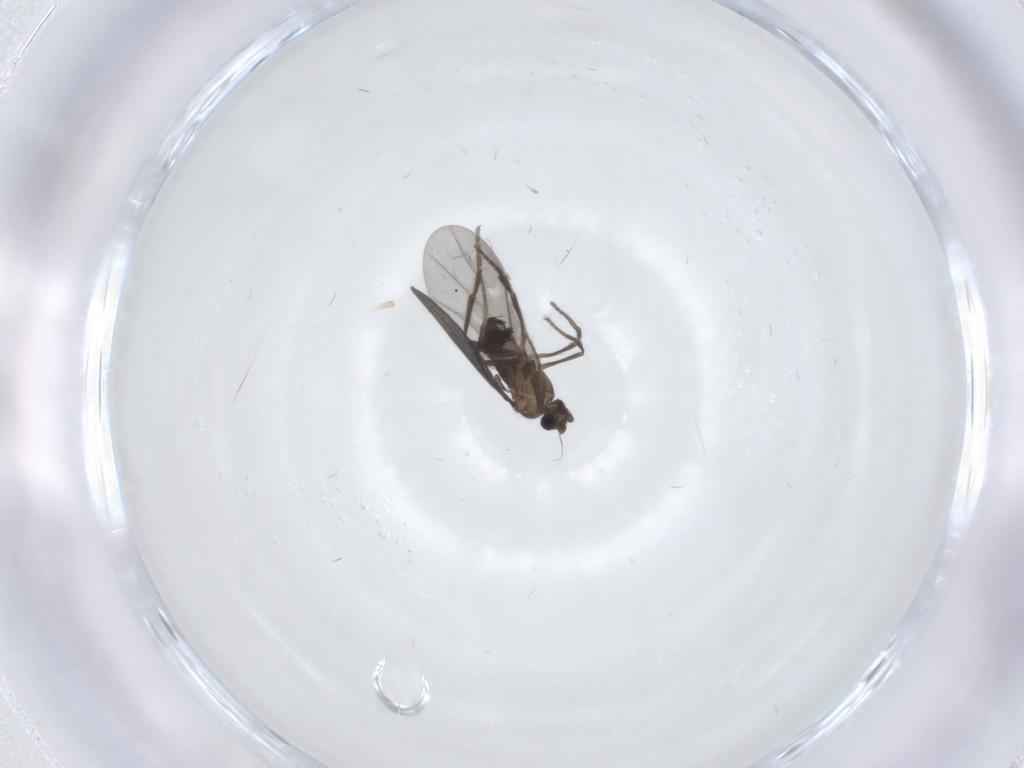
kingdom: Animalia
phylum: Arthropoda
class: Insecta
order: Diptera
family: Phoridae
